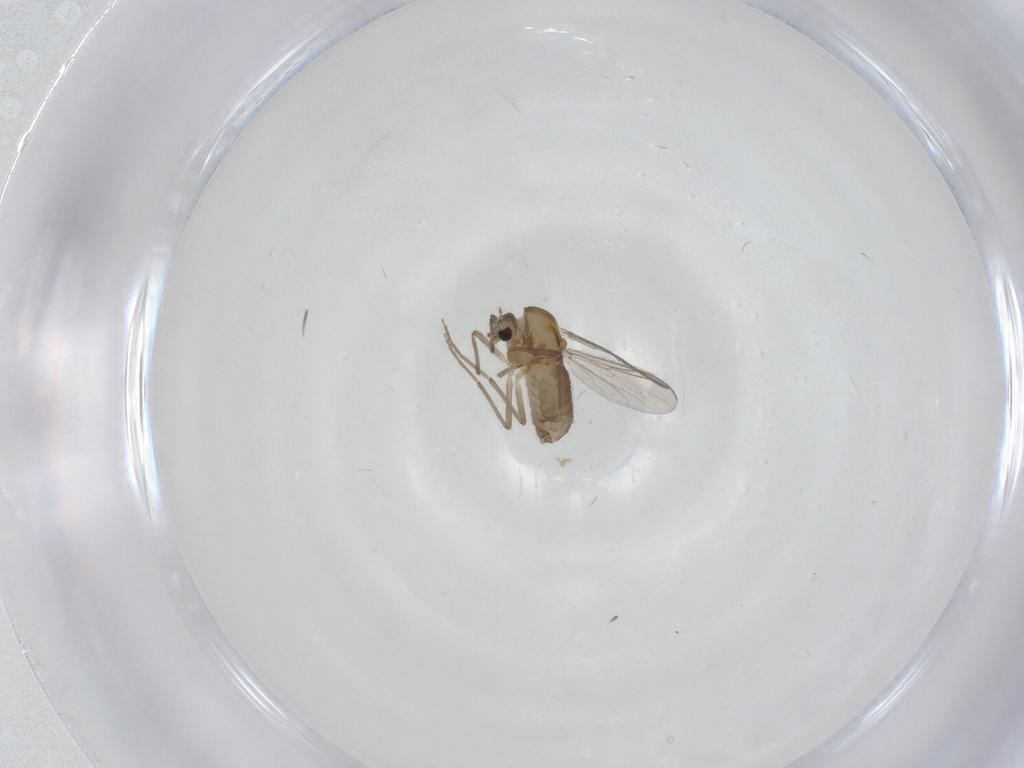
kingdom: Animalia
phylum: Arthropoda
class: Insecta
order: Diptera
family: Chironomidae
